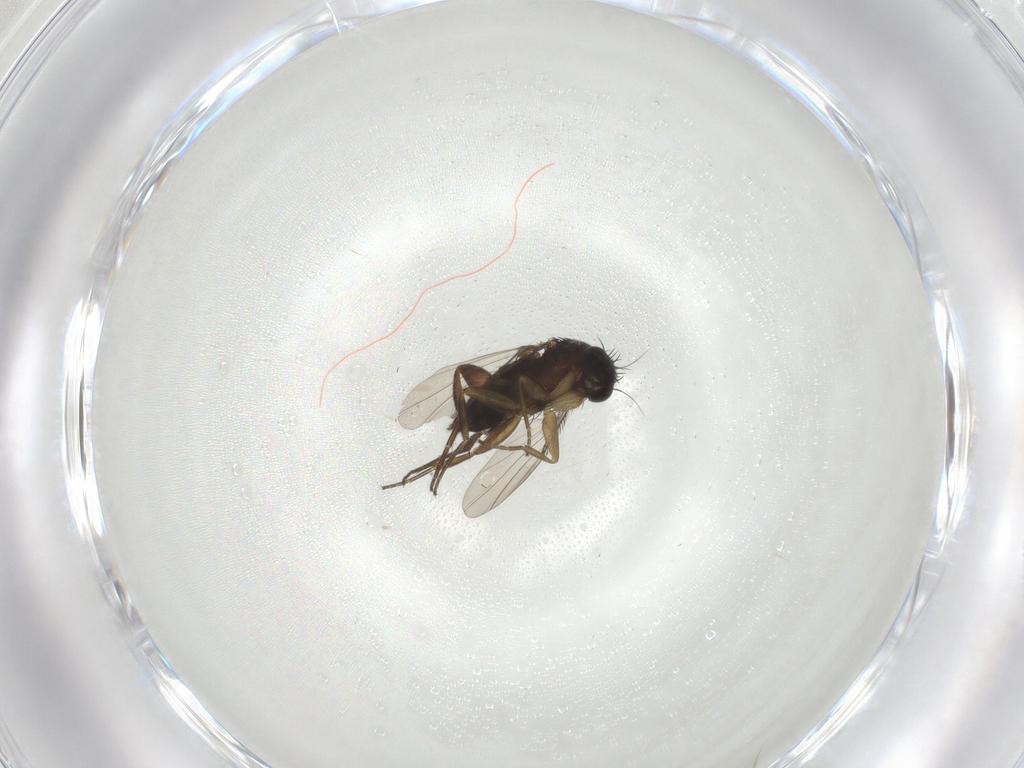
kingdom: Animalia
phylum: Arthropoda
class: Insecta
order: Diptera
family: Phoridae
